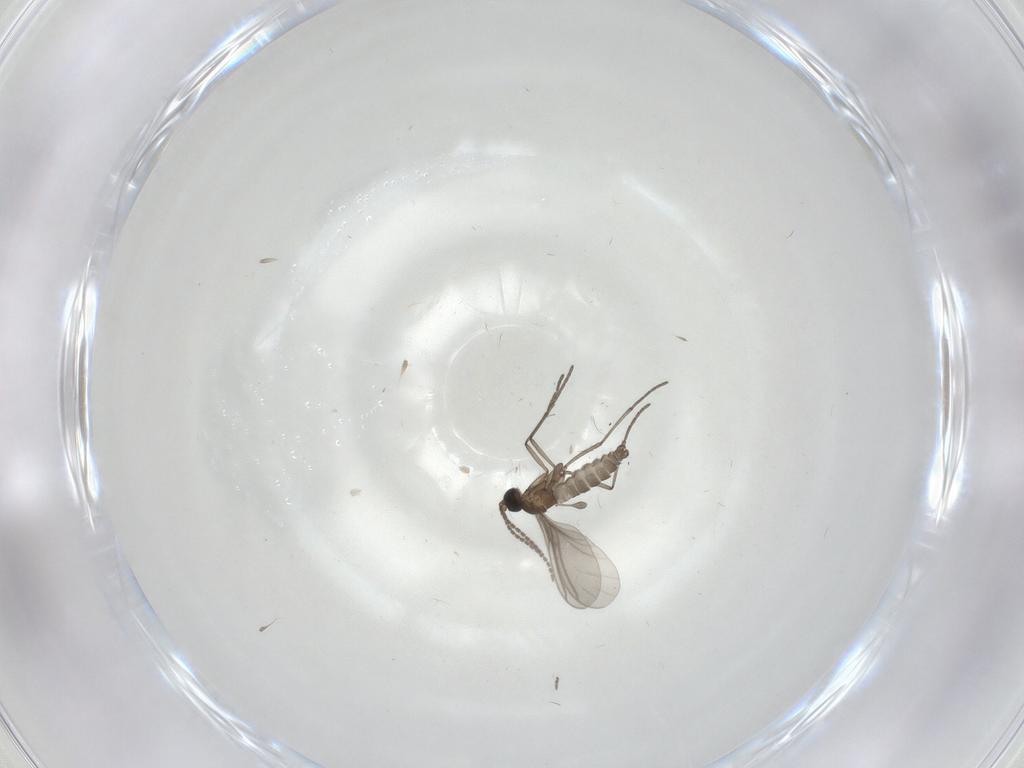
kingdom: Animalia
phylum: Arthropoda
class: Insecta
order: Diptera
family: Sciaridae
